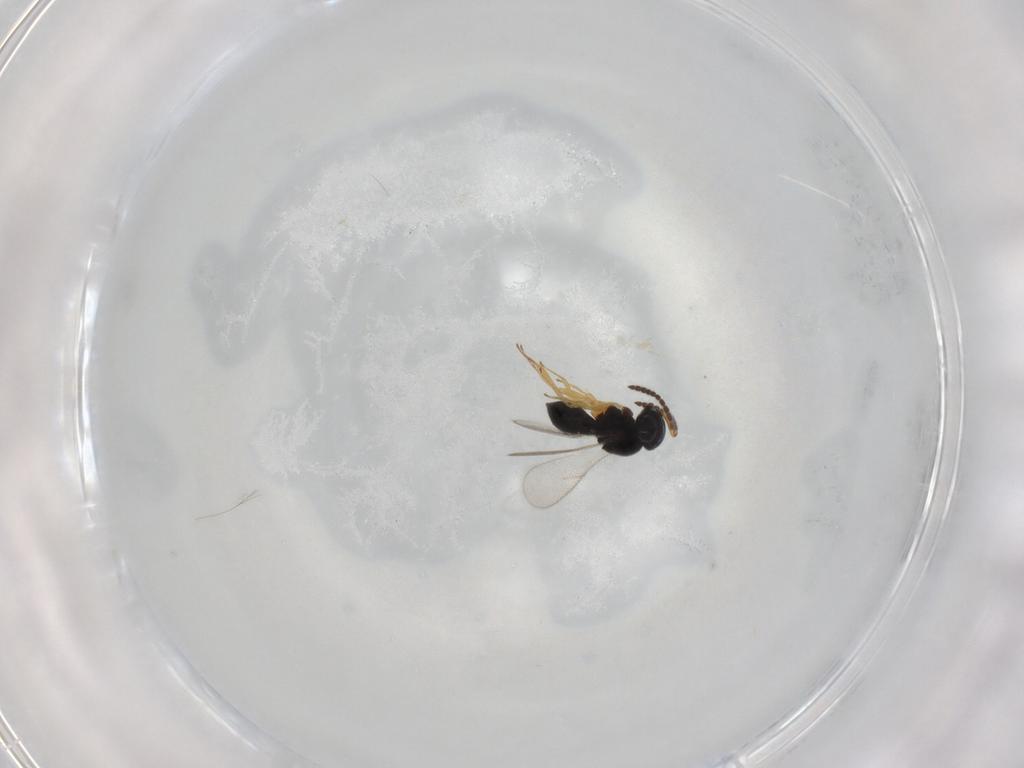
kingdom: Animalia
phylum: Arthropoda
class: Insecta
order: Hymenoptera
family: Scelionidae
